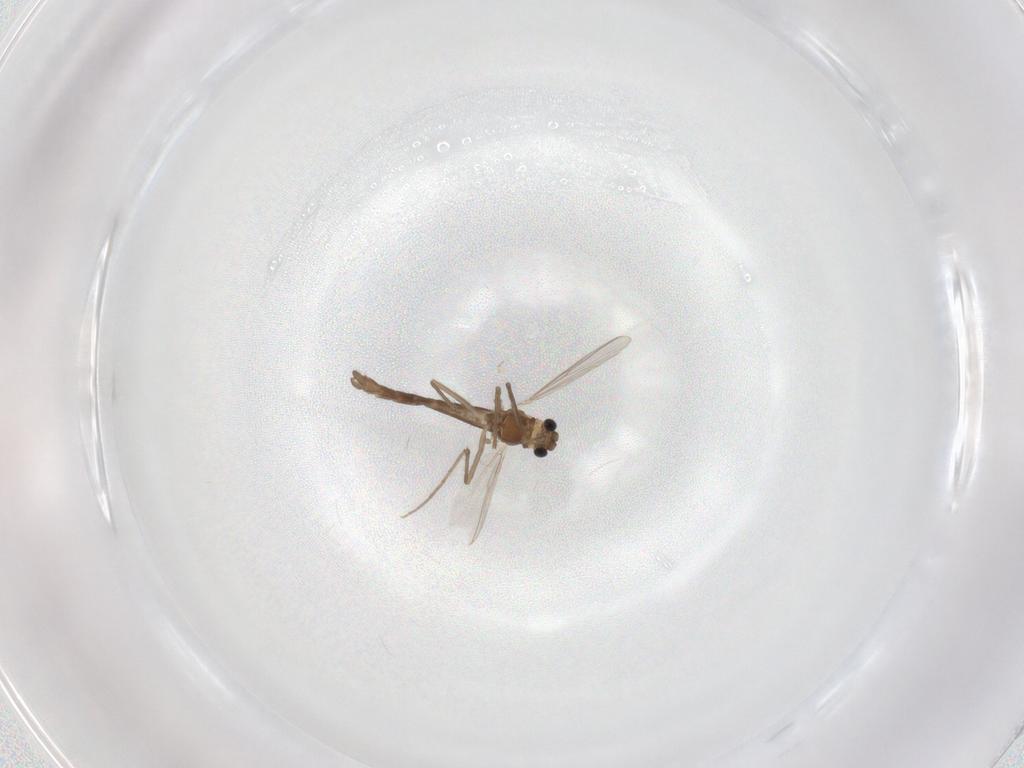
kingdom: Animalia
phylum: Arthropoda
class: Insecta
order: Diptera
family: Chironomidae
